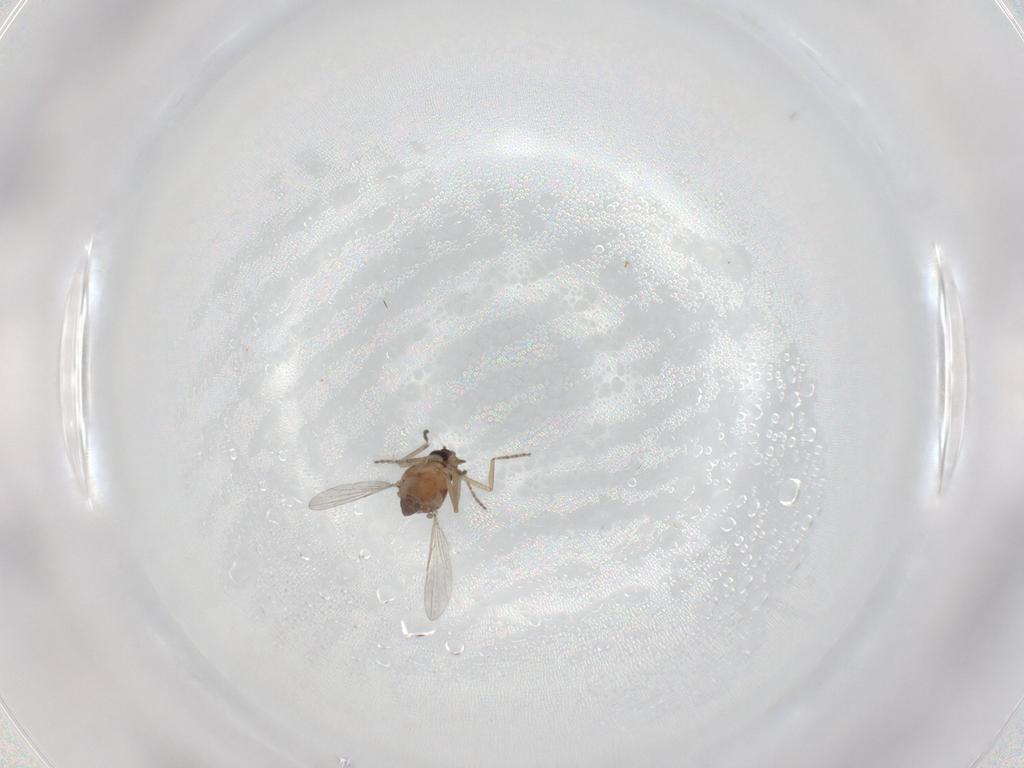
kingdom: Animalia
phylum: Arthropoda
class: Insecta
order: Diptera
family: Ceratopogonidae
